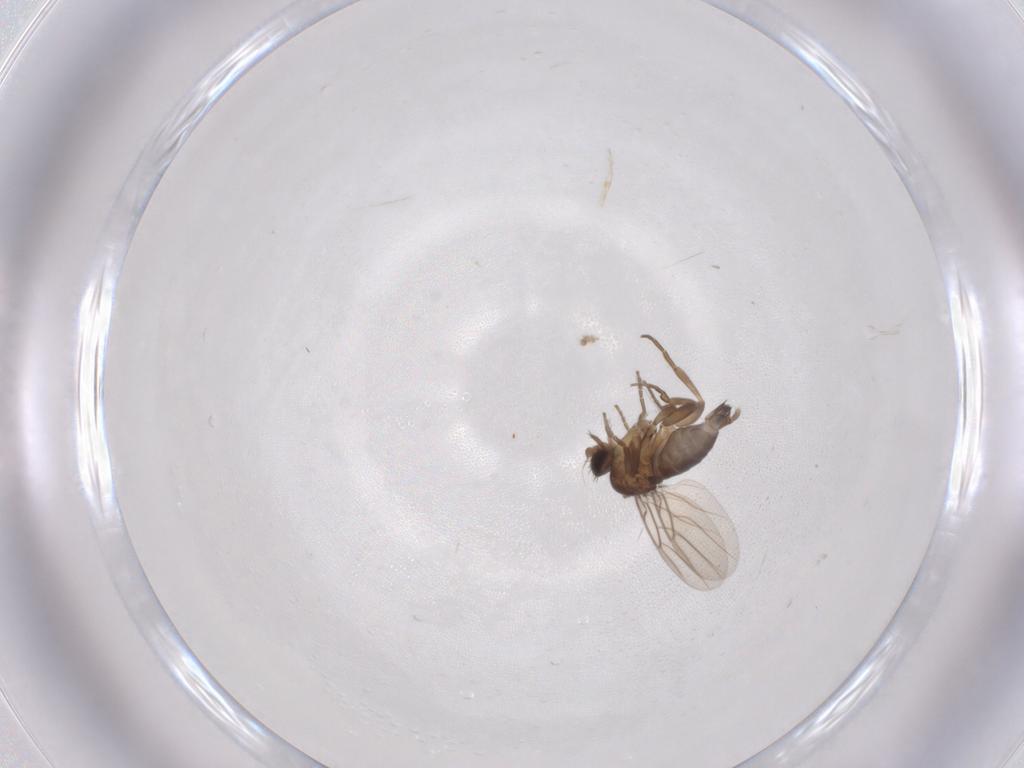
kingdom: Animalia
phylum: Arthropoda
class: Insecta
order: Diptera
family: Phoridae
